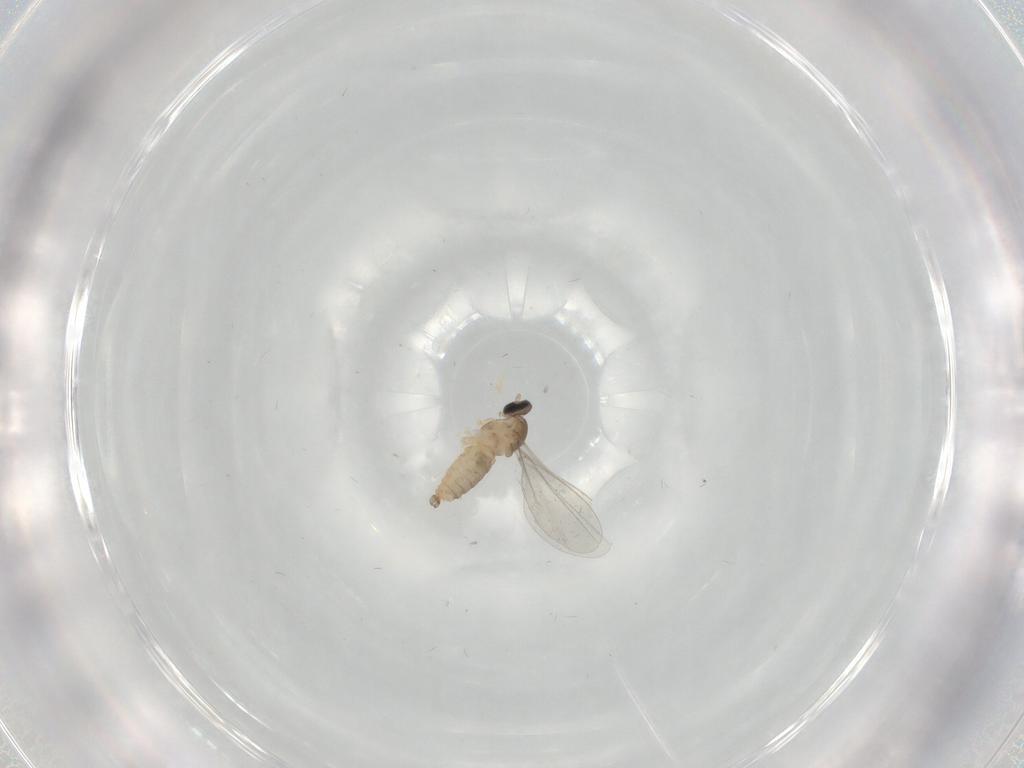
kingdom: Animalia
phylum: Arthropoda
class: Insecta
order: Diptera
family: Cecidomyiidae
